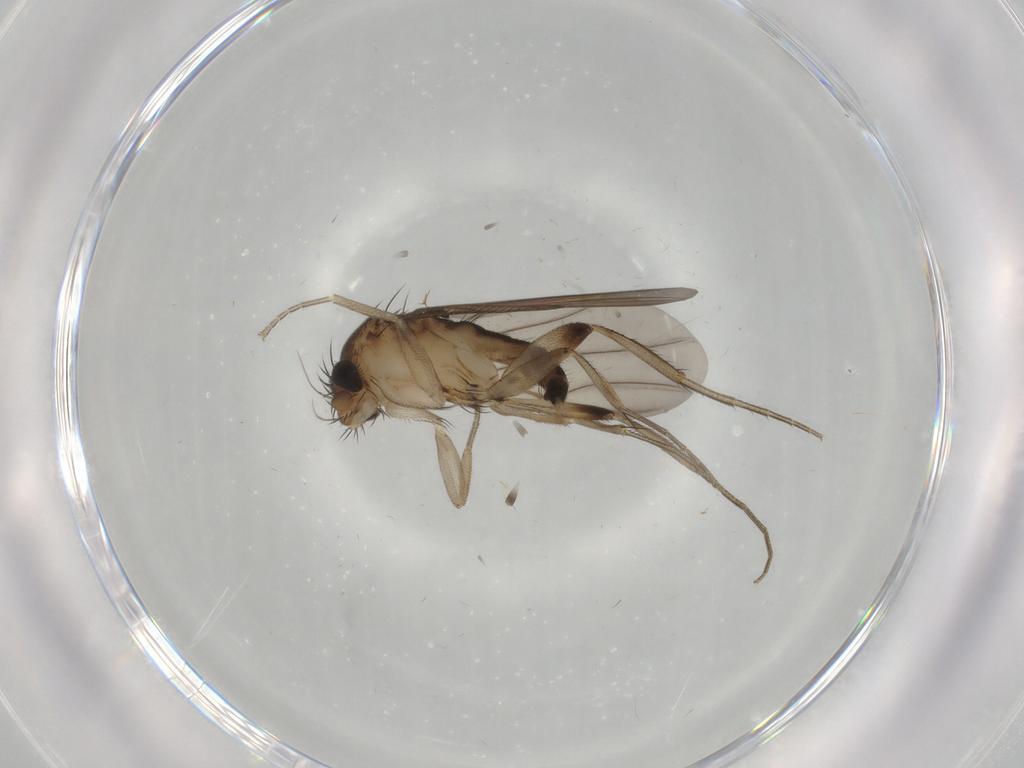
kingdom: Animalia
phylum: Arthropoda
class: Insecta
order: Diptera
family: Phoridae
